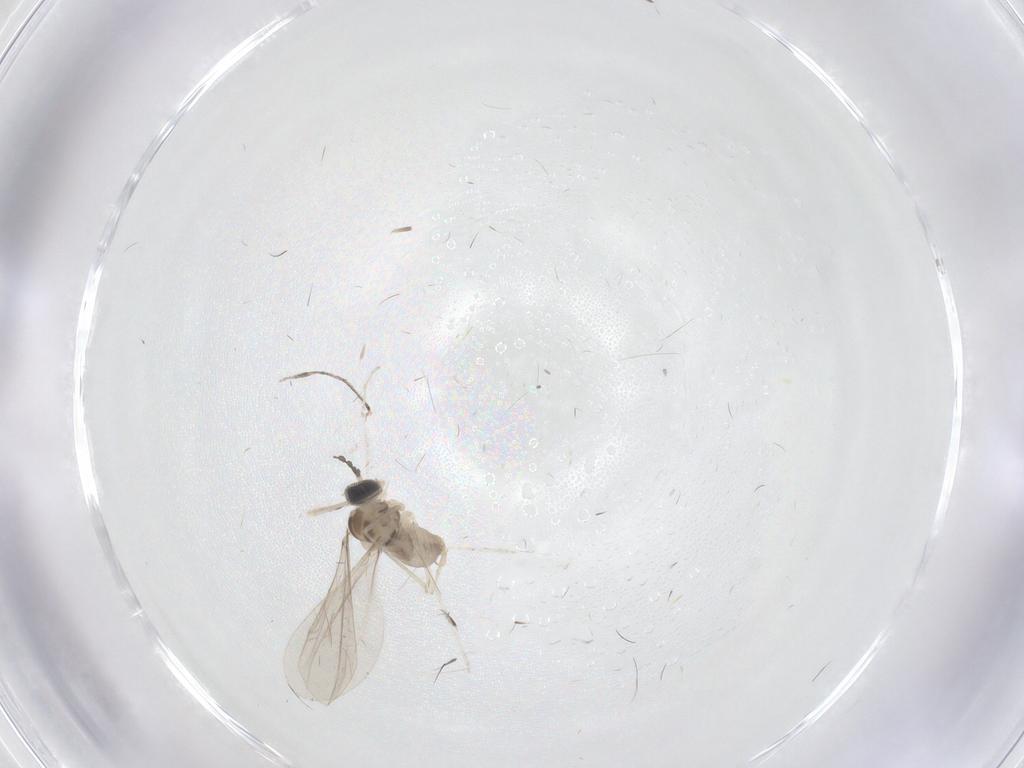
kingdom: Animalia
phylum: Arthropoda
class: Insecta
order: Diptera
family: Cecidomyiidae
